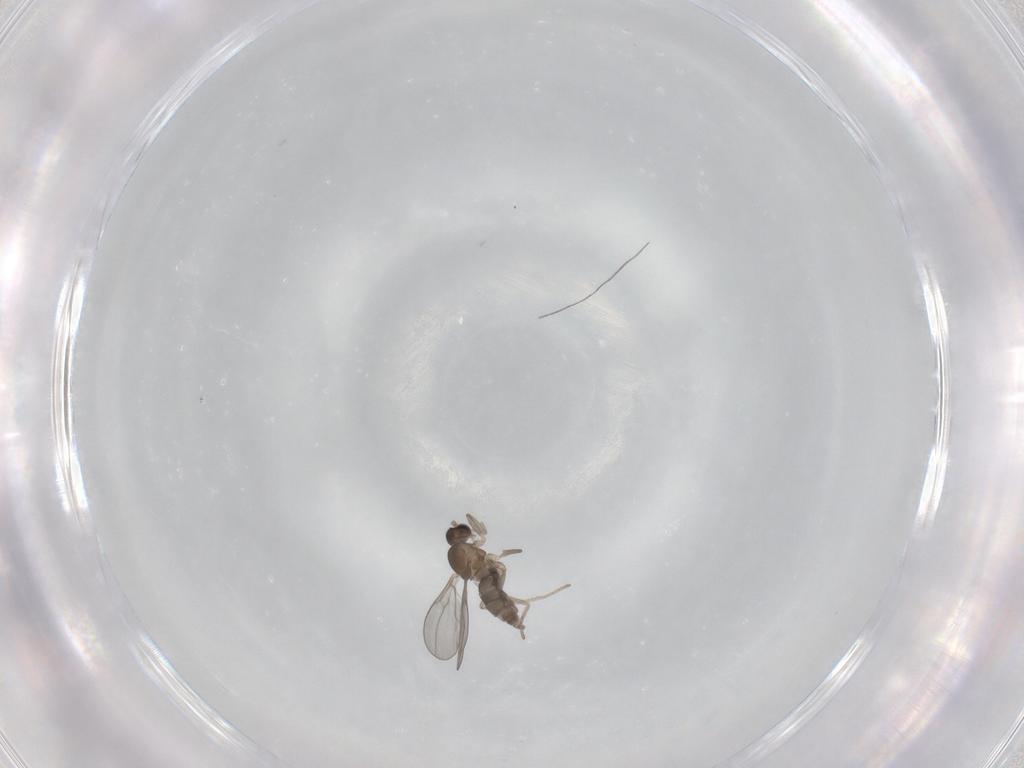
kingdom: Animalia
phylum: Arthropoda
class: Insecta
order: Diptera
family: Cecidomyiidae
